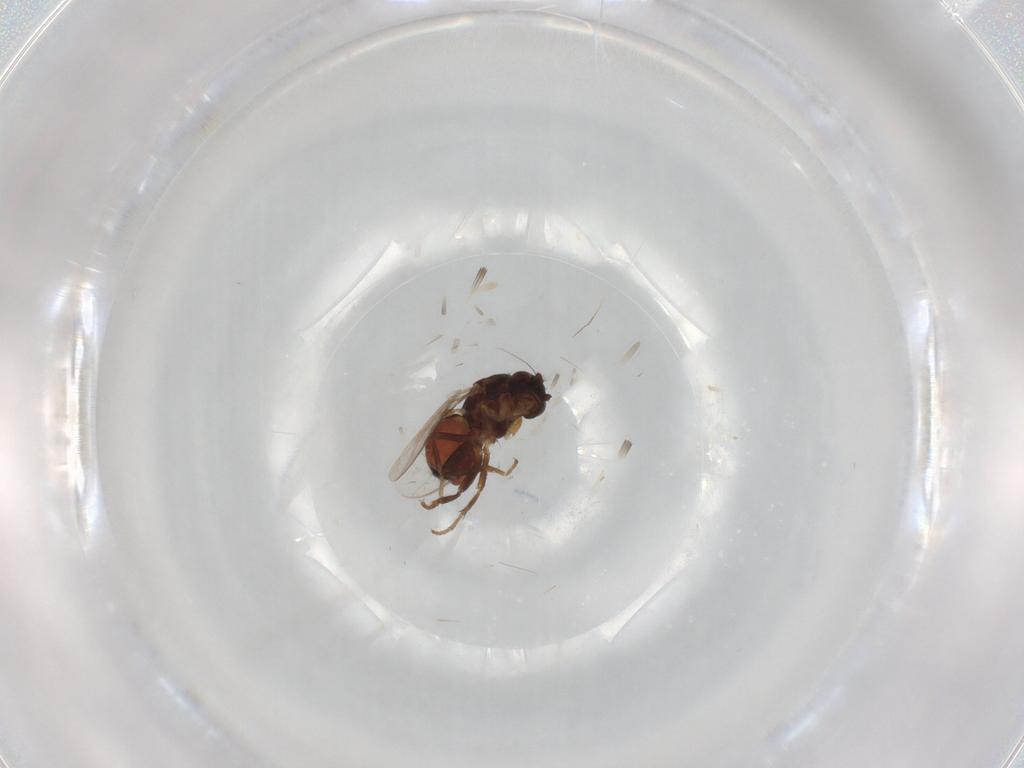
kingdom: Animalia
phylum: Arthropoda
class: Insecta
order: Diptera
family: Sphaeroceridae
